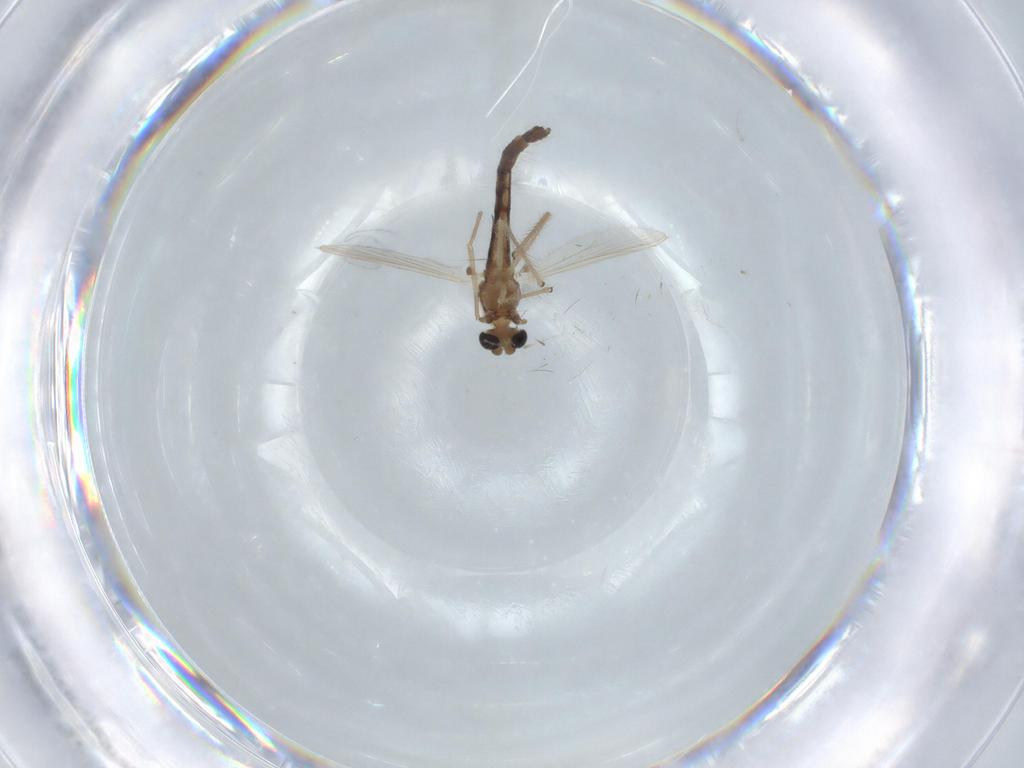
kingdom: Animalia
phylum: Arthropoda
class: Insecta
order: Diptera
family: Chironomidae
